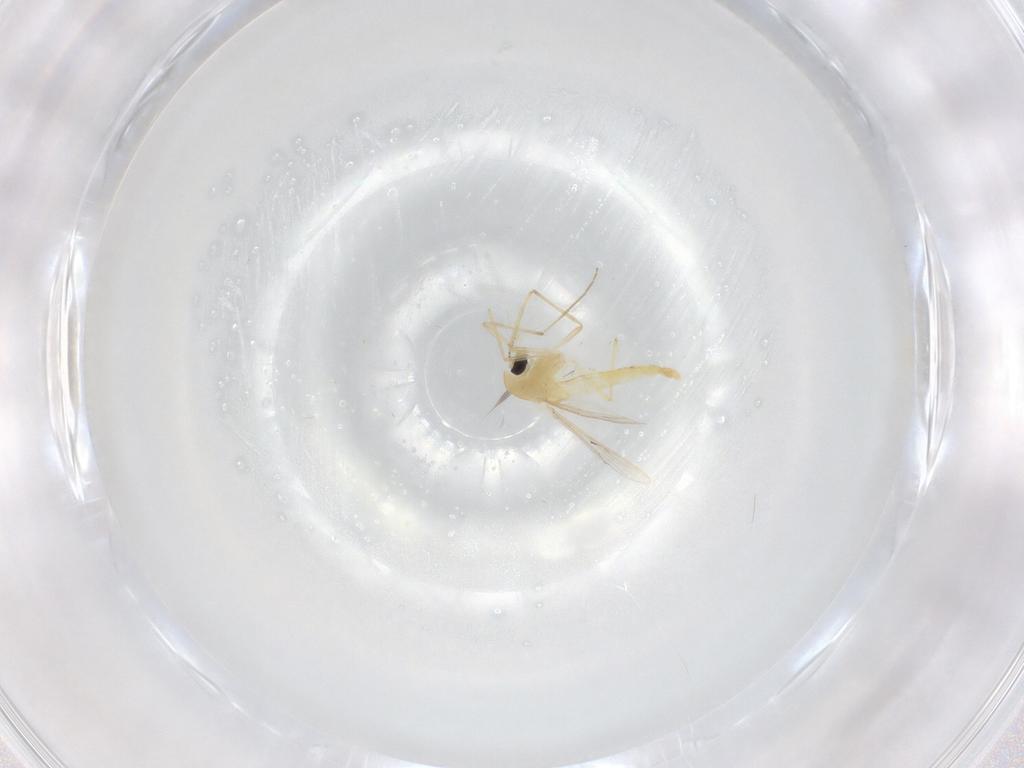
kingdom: Animalia
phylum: Arthropoda
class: Insecta
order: Diptera
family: Chironomidae
